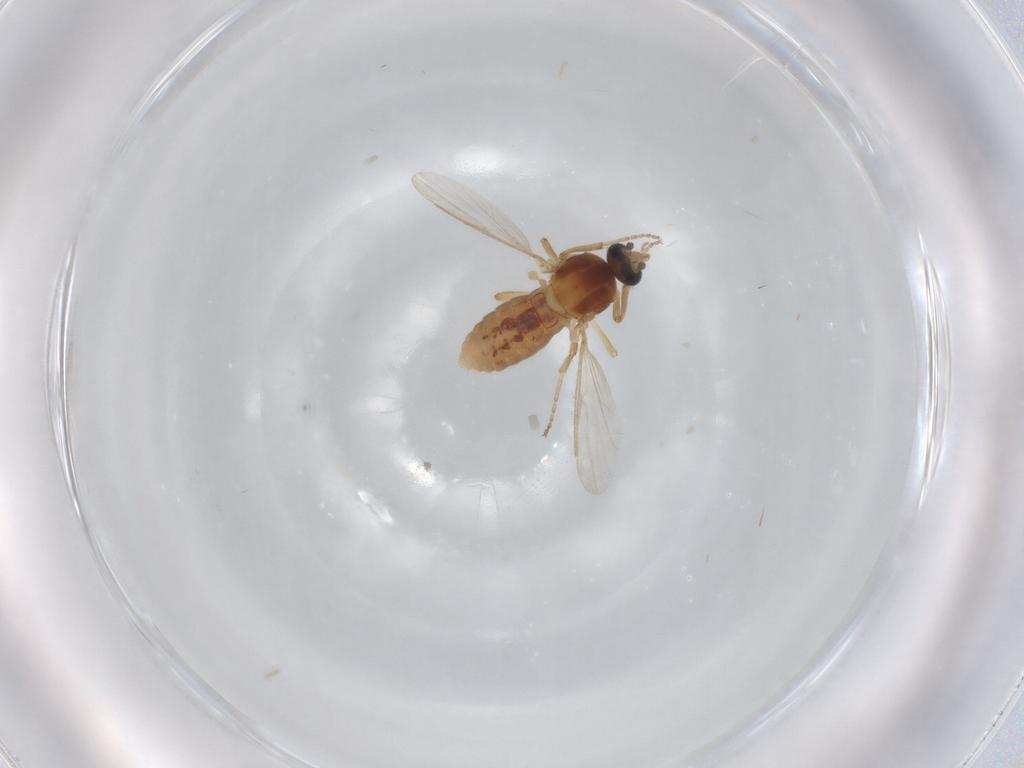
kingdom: Animalia
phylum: Arthropoda
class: Insecta
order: Diptera
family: Ceratopogonidae
